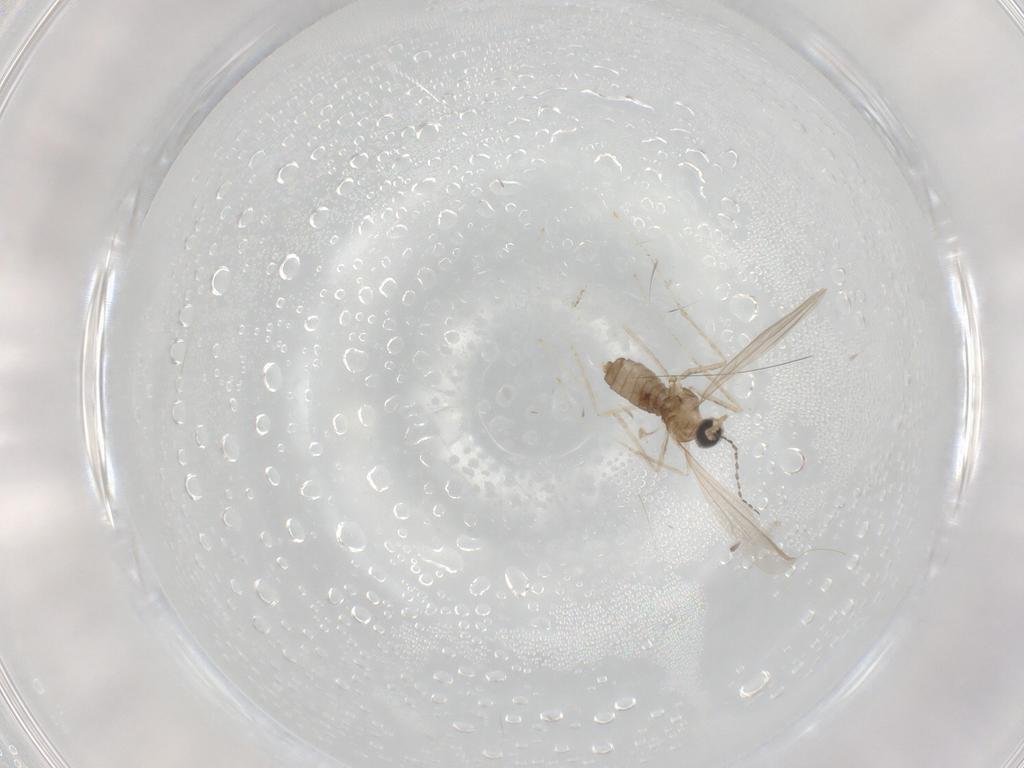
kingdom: Animalia
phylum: Arthropoda
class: Insecta
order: Diptera
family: Cecidomyiidae
